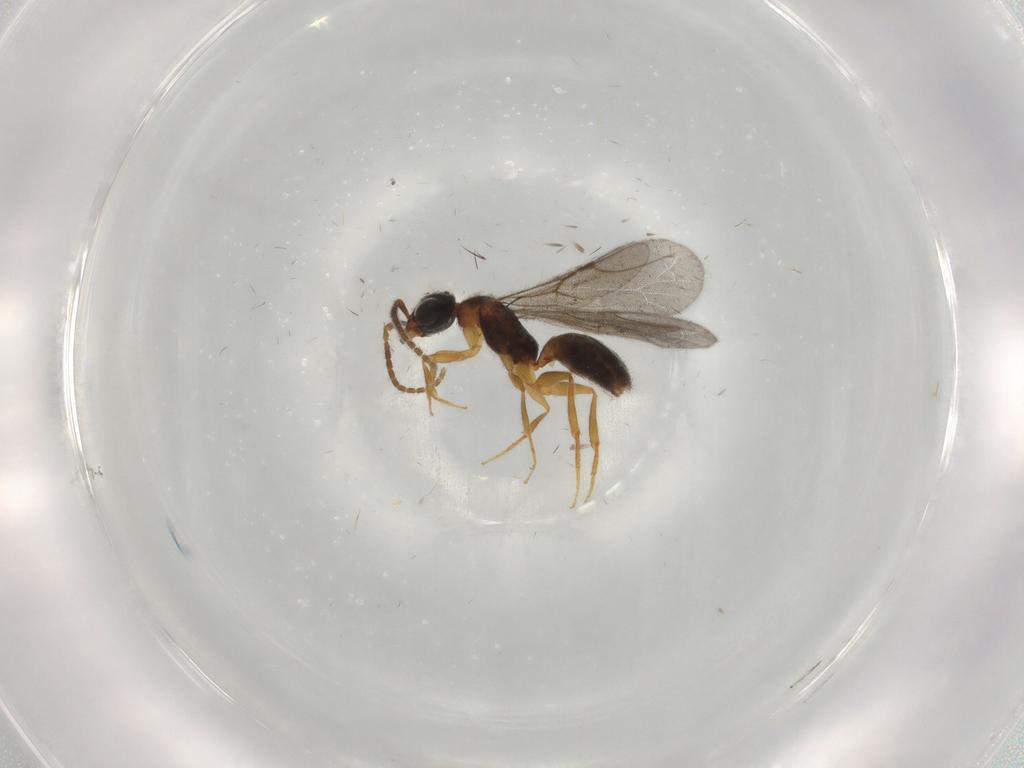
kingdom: Animalia
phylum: Arthropoda
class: Insecta
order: Hymenoptera
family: Bethylidae
